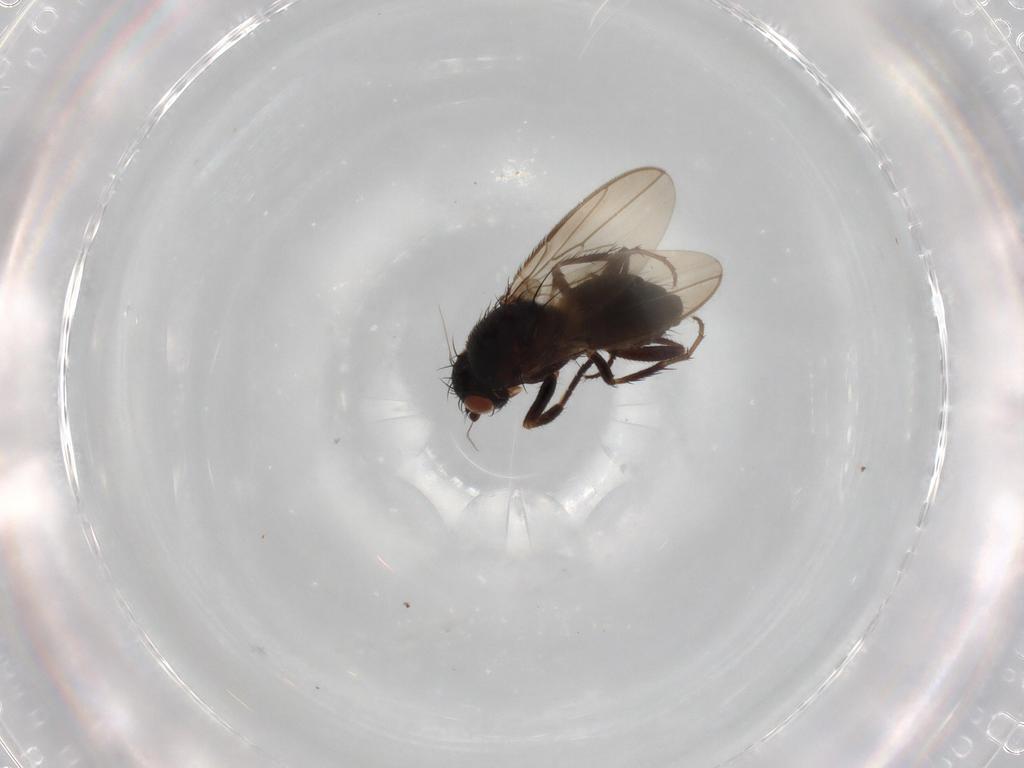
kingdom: Animalia
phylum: Arthropoda
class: Insecta
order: Diptera
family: Sphaeroceridae
